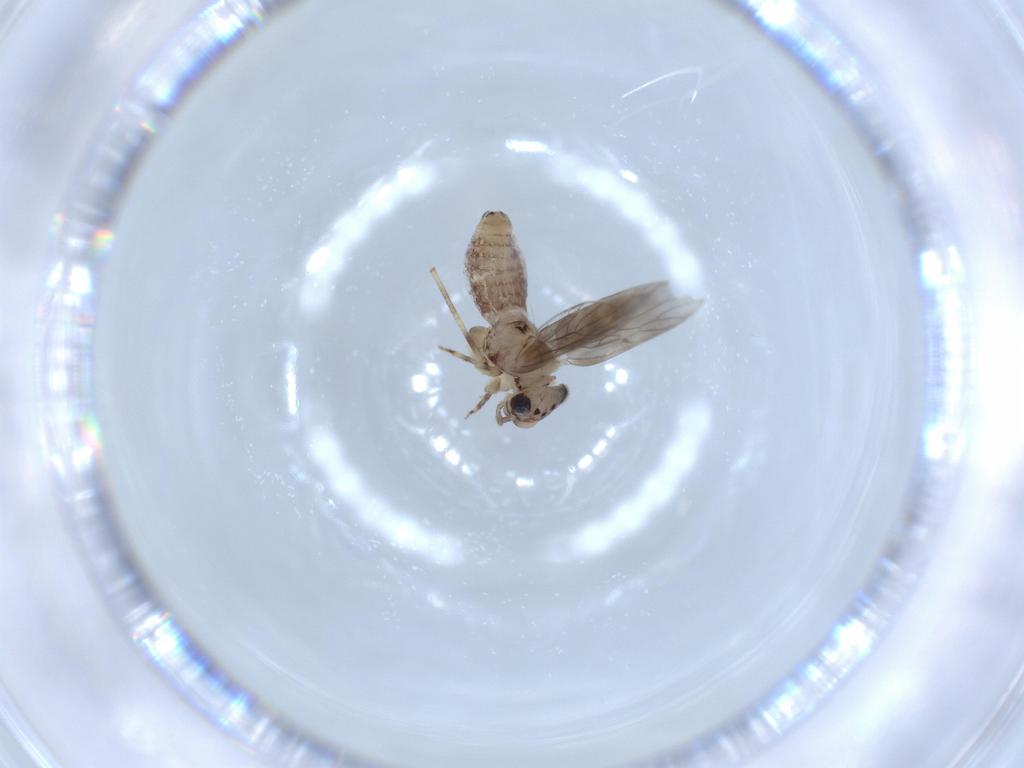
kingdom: Animalia
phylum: Arthropoda
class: Insecta
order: Psocodea
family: Lepidopsocidae
